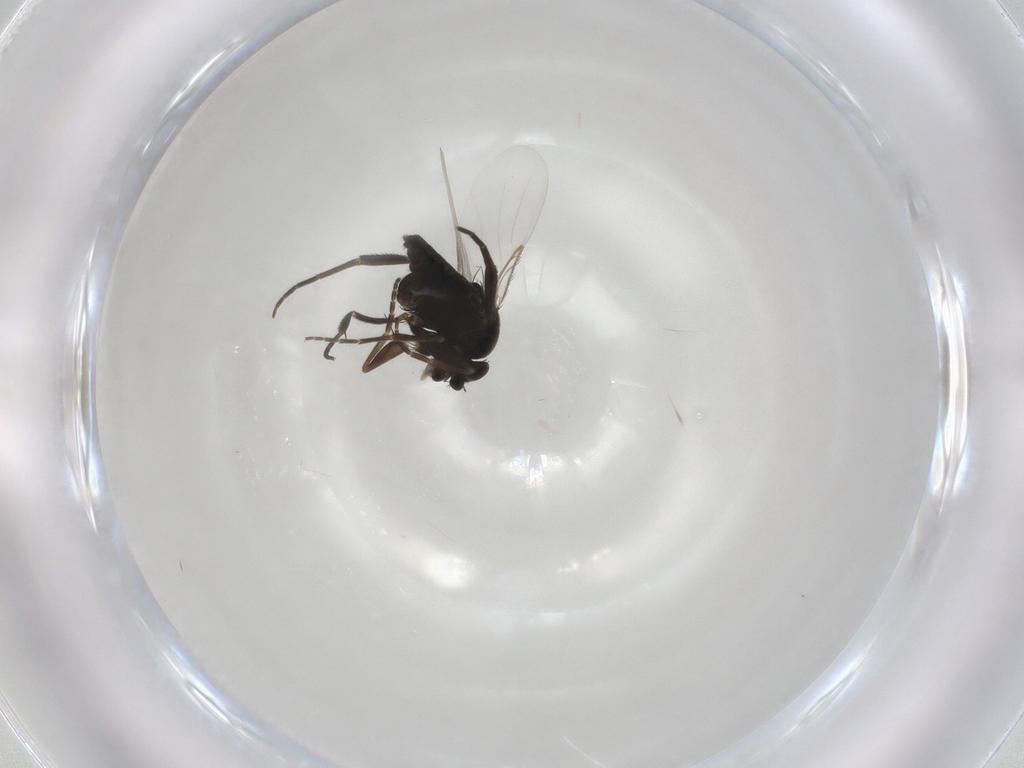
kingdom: Animalia
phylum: Arthropoda
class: Insecta
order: Diptera
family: Phoridae
